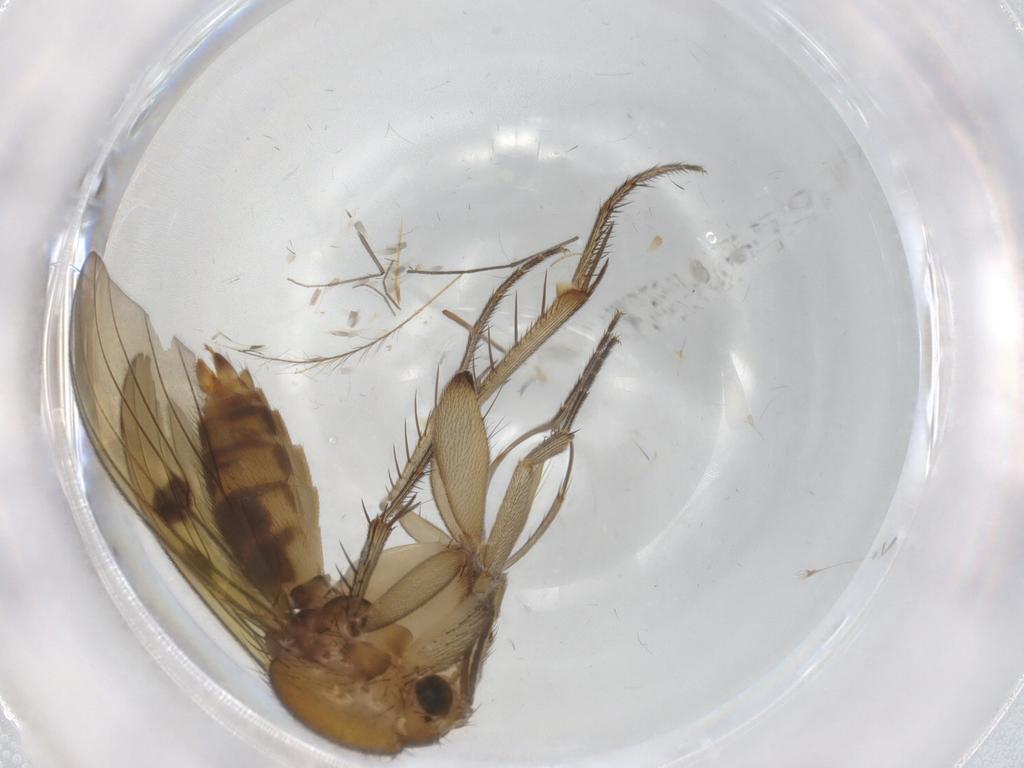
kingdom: Animalia
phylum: Arthropoda
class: Insecta
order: Diptera
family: Mycetophilidae
